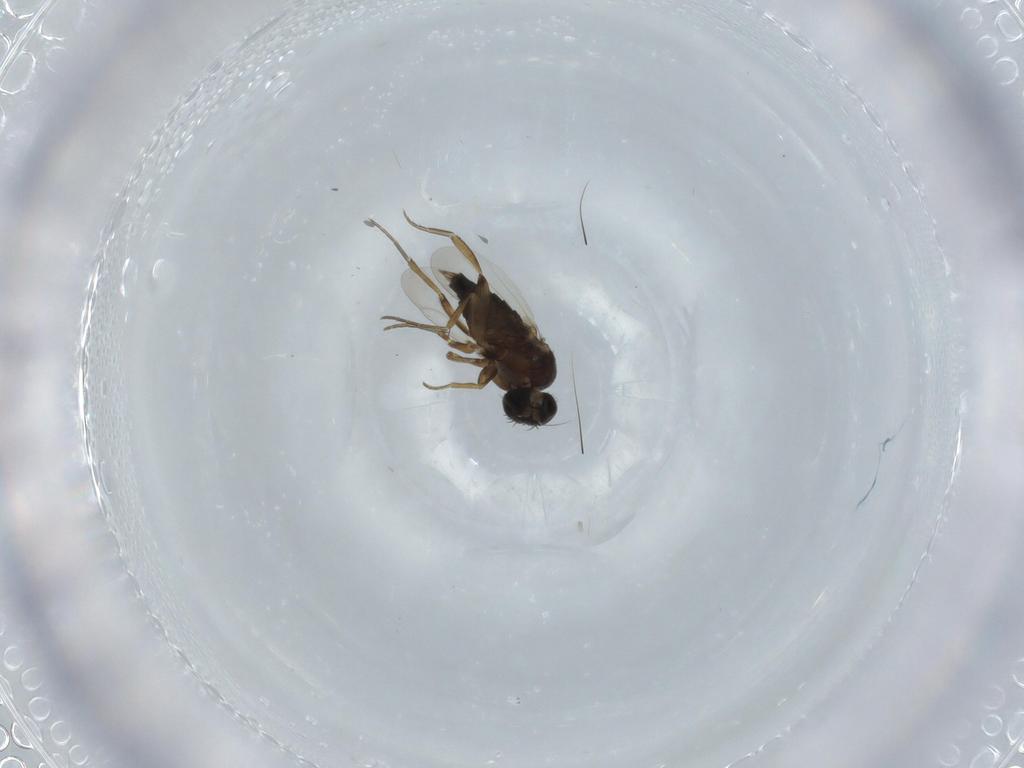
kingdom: Animalia
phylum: Arthropoda
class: Insecta
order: Diptera
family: Phoridae
